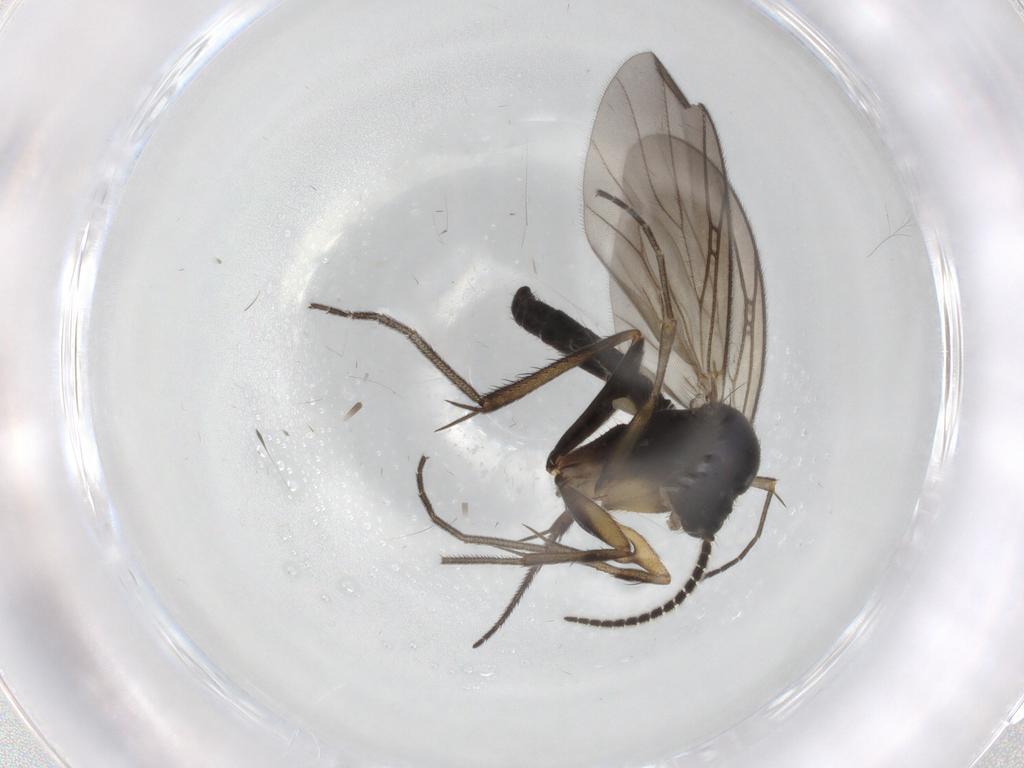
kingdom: Animalia
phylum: Arthropoda
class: Insecta
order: Diptera
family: Mycetophilidae
